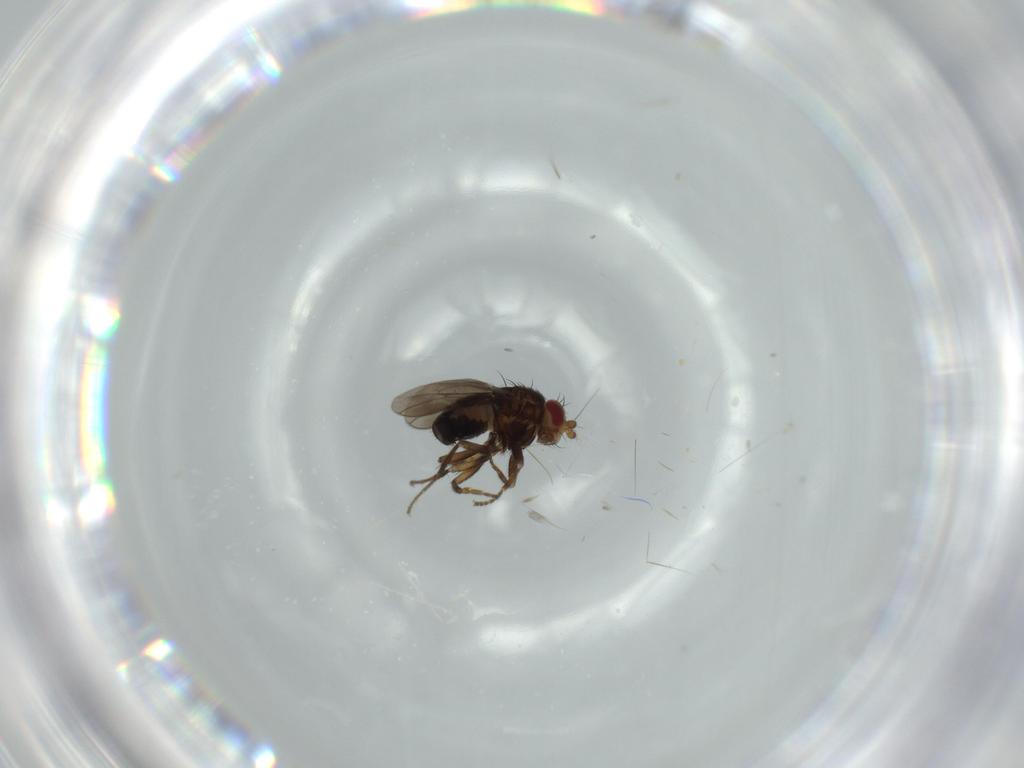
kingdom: Animalia
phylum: Arthropoda
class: Insecta
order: Diptera
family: Sphaeroceridae
